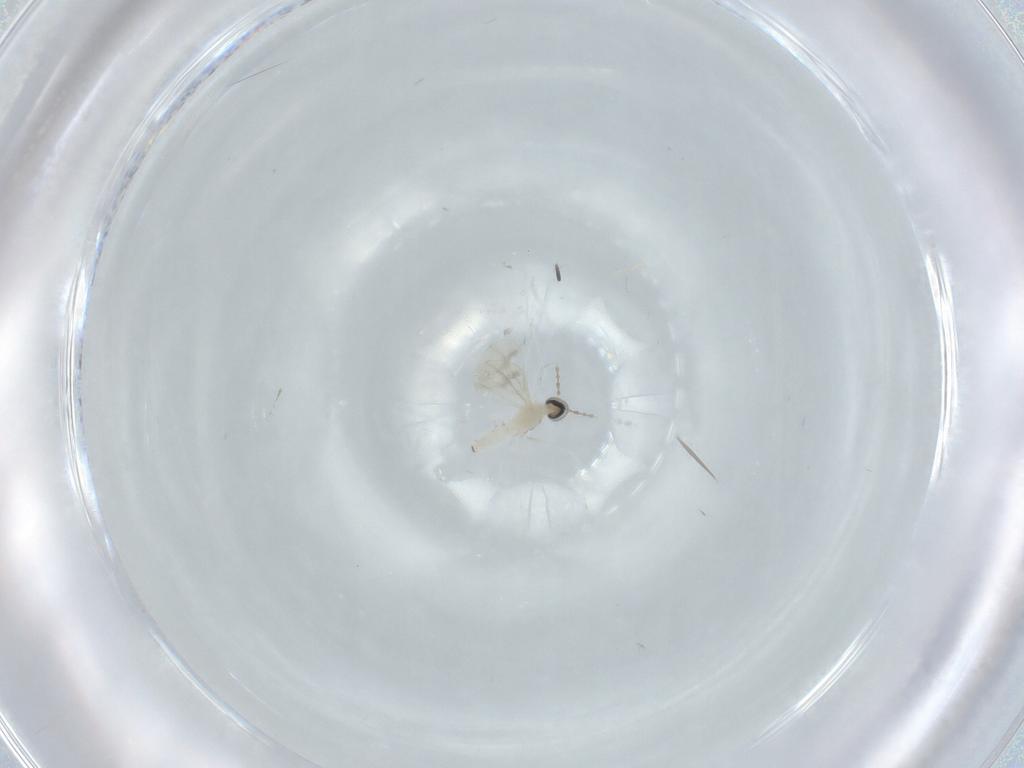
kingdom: Animalia
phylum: Arthropoda
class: Insecta
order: Diptera
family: Cecidomyiidae
